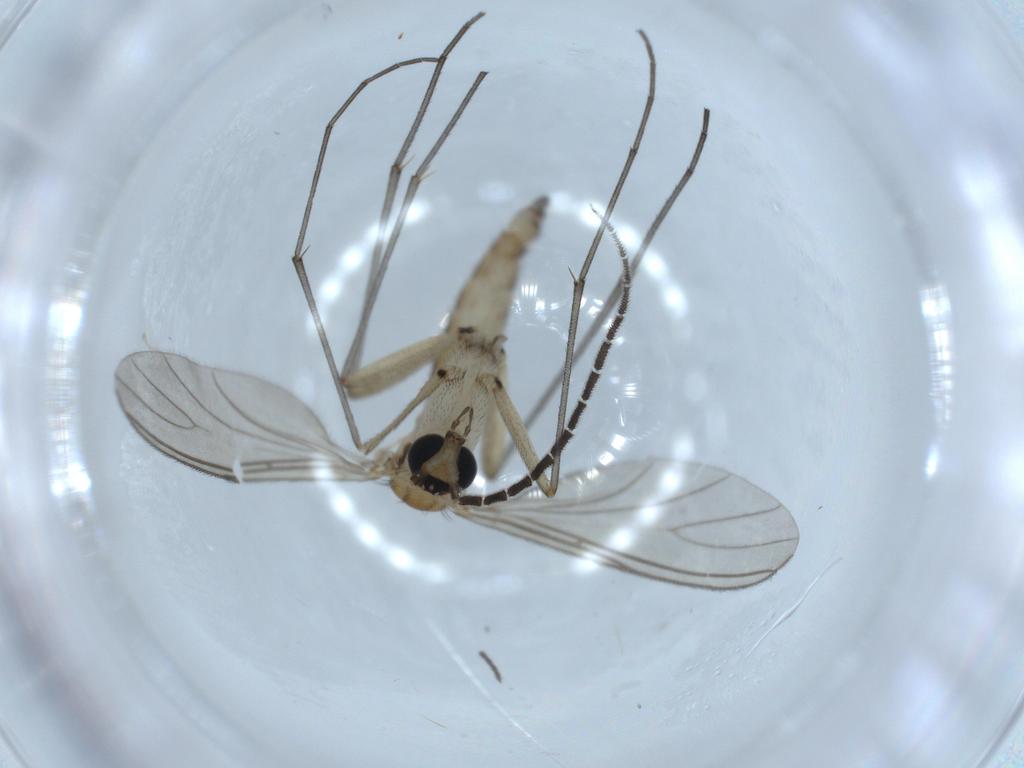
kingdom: Animalia
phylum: Arthropoda
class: Insecta
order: Diptera
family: Sciaridae
